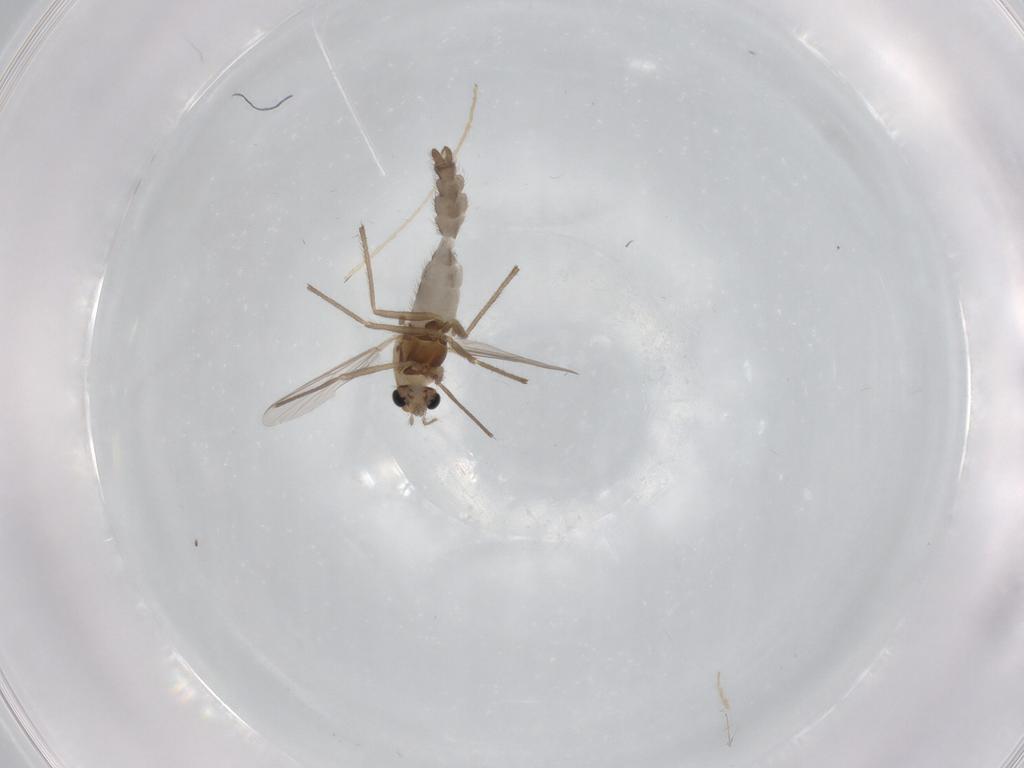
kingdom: Animalia
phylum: Arthropoda
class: Insecta
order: Diptera
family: Chironomidae
